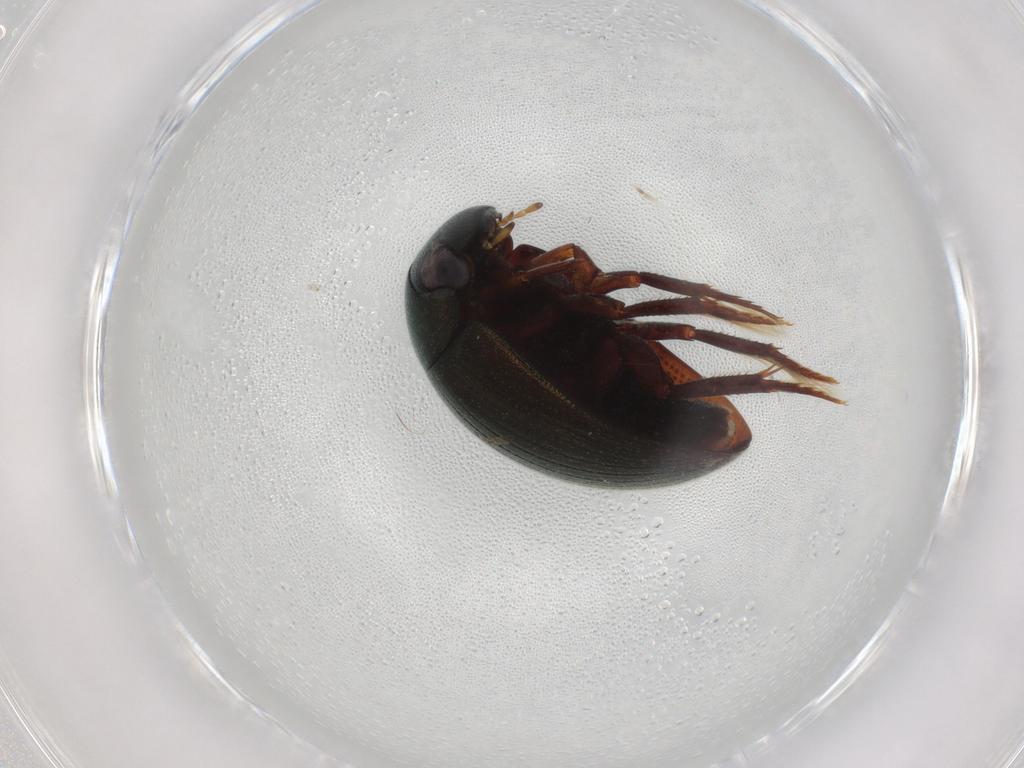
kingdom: Animalia
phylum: Arthropoda
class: Insecta
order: Coleoptera
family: Hydrophilidae
